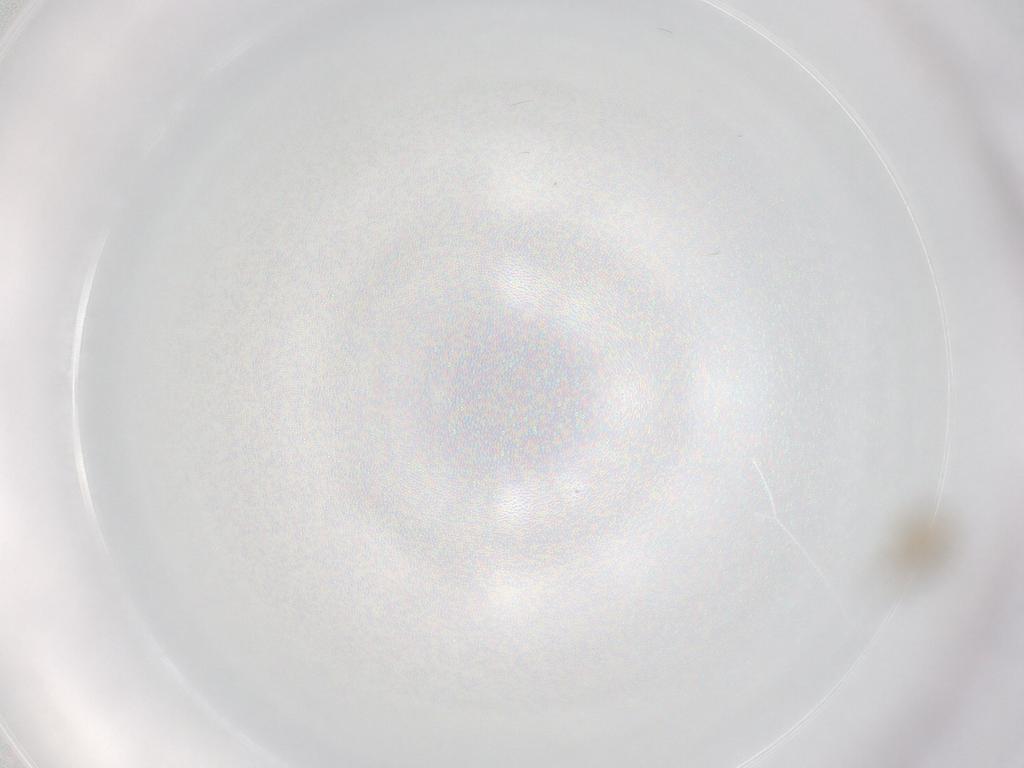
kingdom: Animalia
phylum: Arthropoda
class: Insecta
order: Diptera
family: Chironomidae
